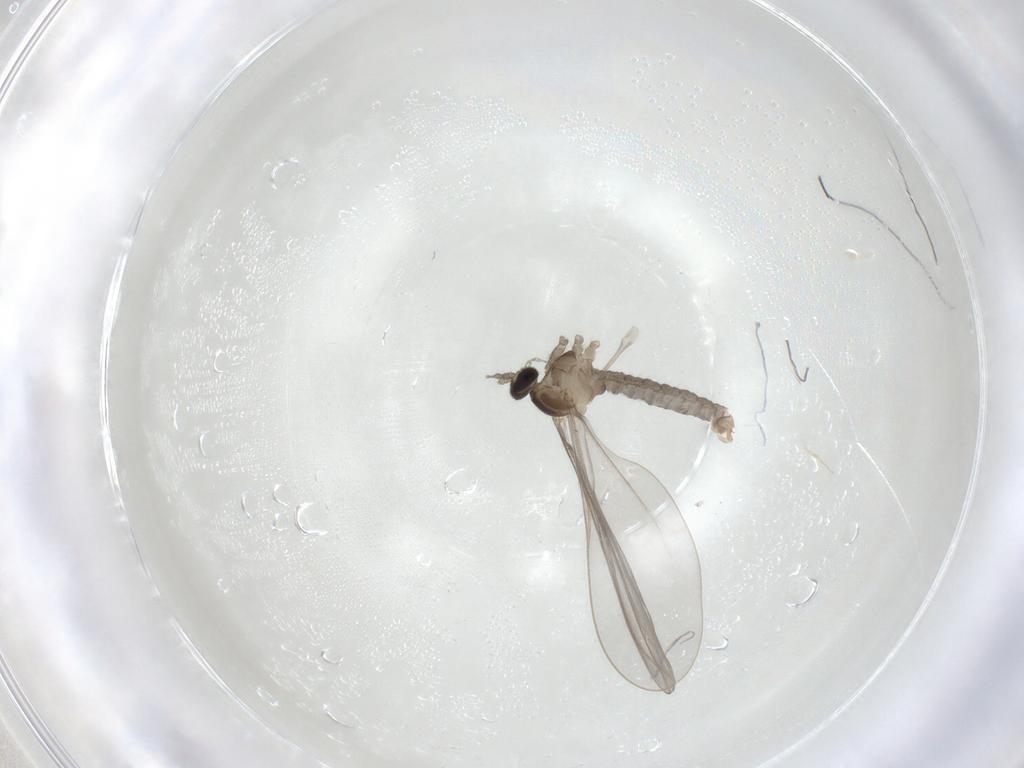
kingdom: Animalia
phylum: Arthropoda
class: Insecta
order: Diptera
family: Cecidomyiidae
